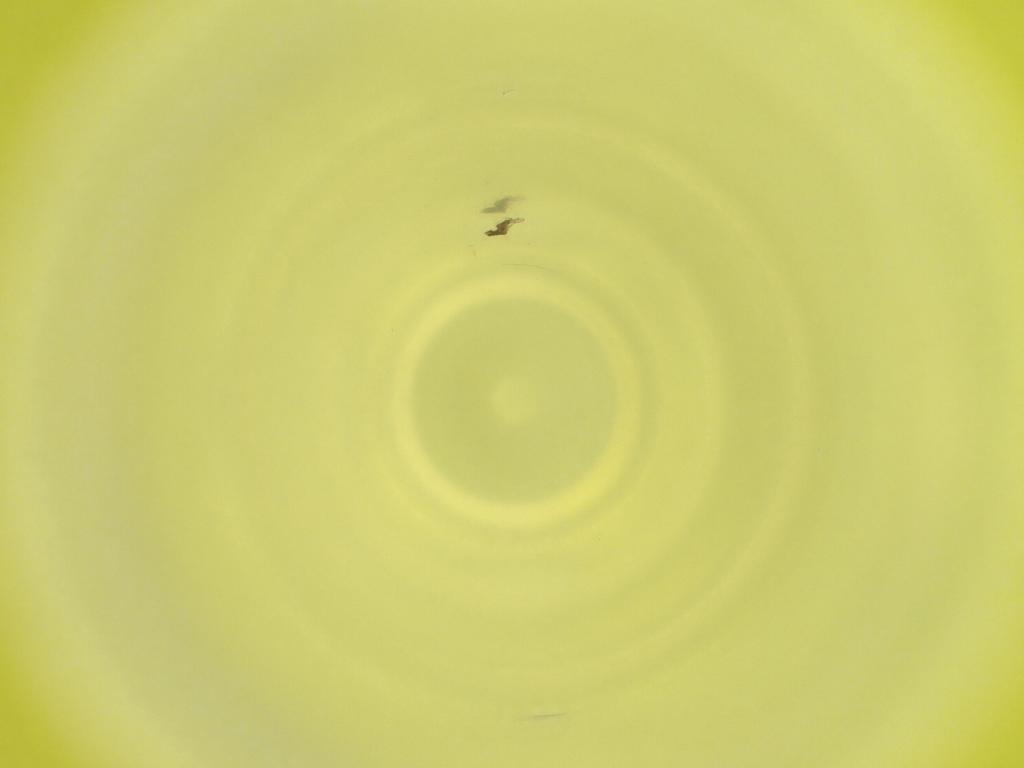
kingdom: Animalia
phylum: Arthropoda
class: Insecta
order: Diptera
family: Cecidomyiidae
